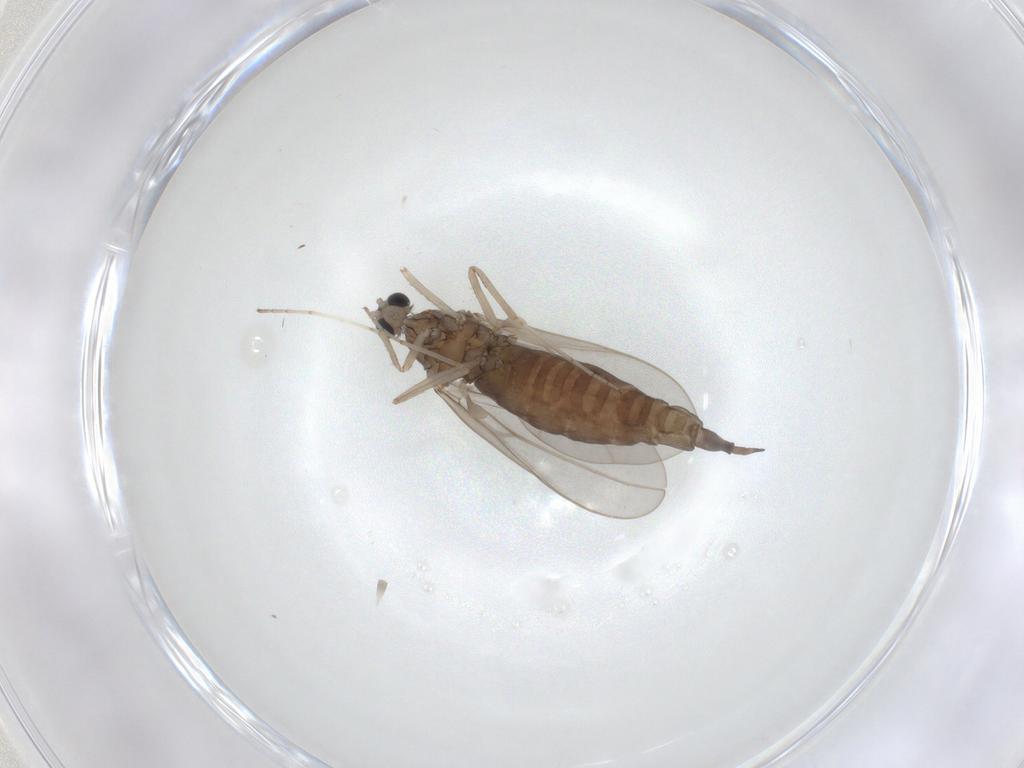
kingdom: Animalia
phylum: Arthropoda
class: Insecta
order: Diptera
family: Cecidomyiidae
